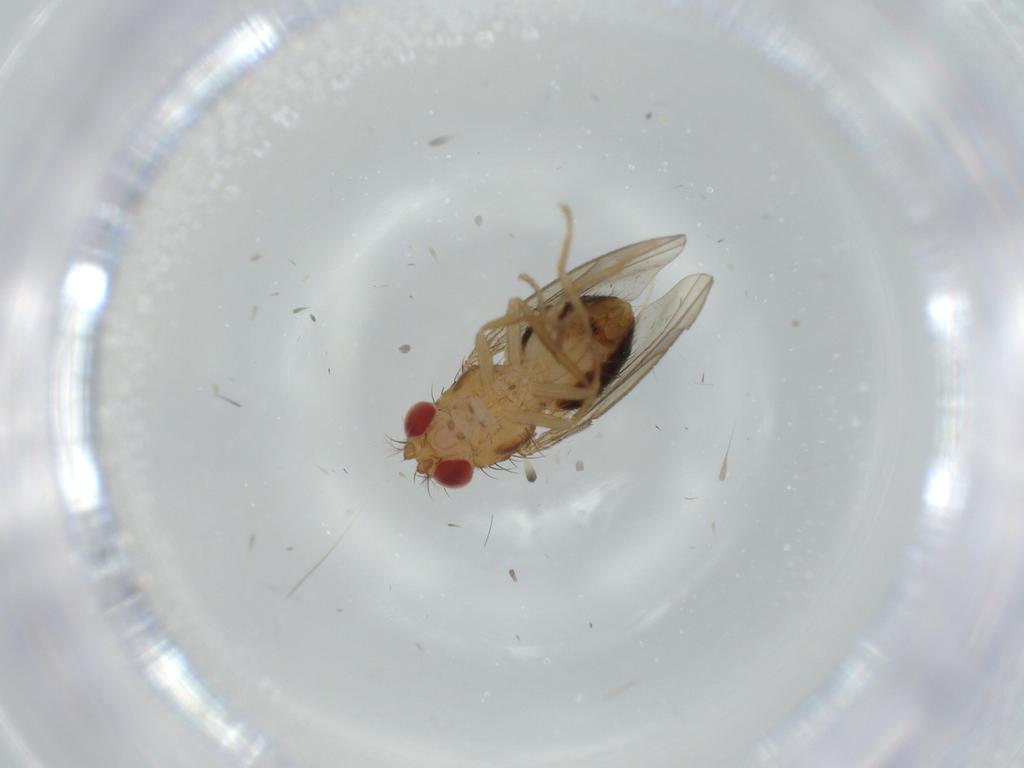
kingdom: Animalia
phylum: Arthropoda
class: Insecta
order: Diptera
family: Drosophilidae
